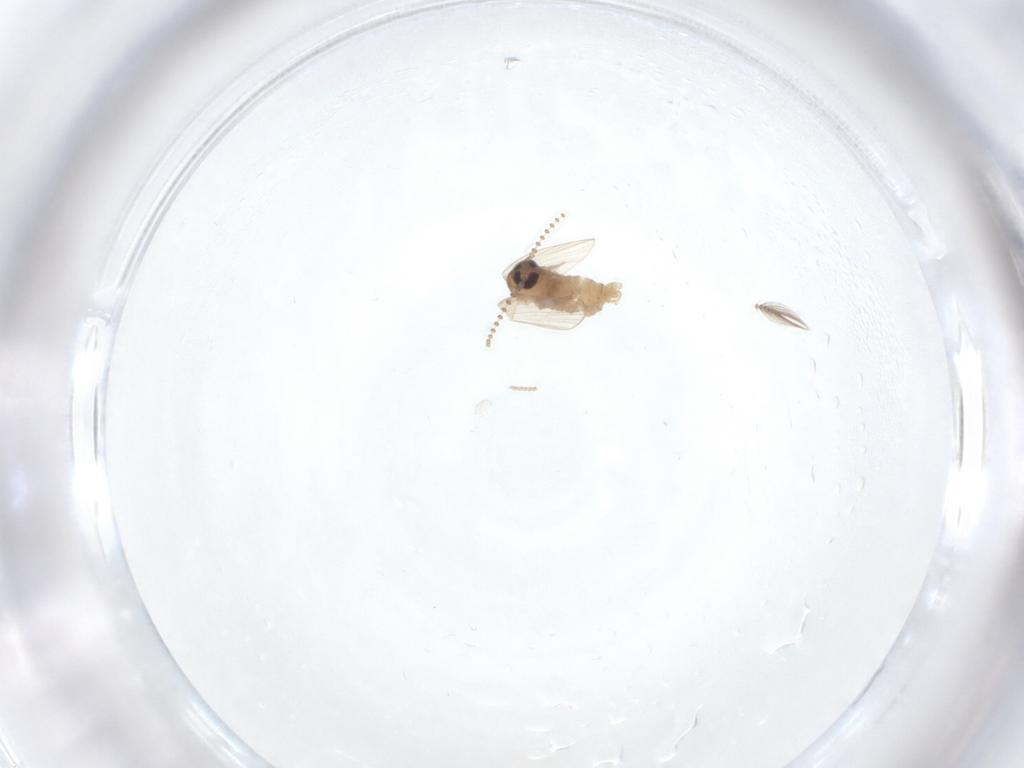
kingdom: Animalia
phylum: Arthropoda
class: Insecta
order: Diptera
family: Psychodidae
